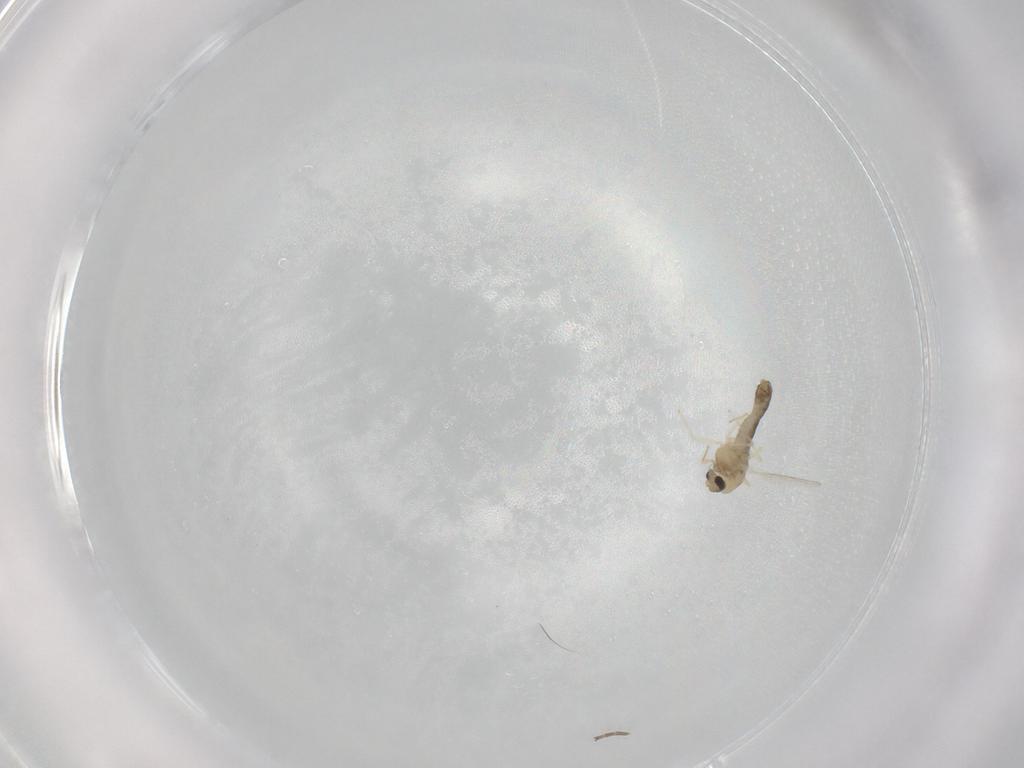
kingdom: Animalia
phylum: Arthropoda
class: Insecta
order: Diptera
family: Chironomidae
